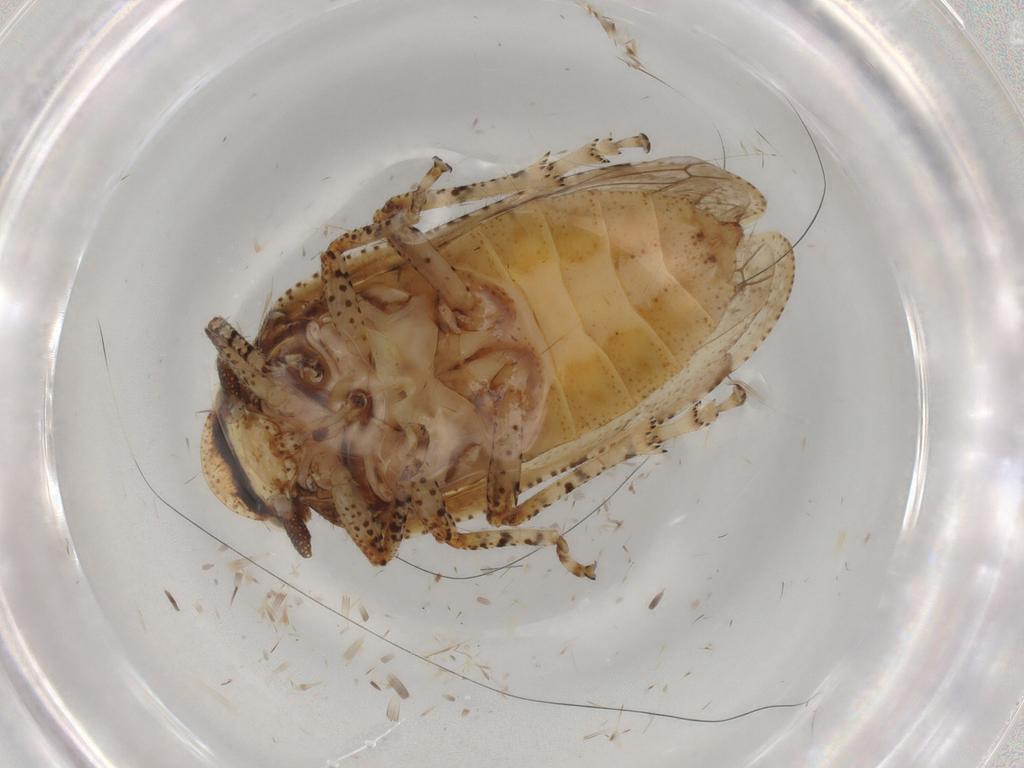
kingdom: Animalia
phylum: Arthropoda
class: Insecta
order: Hemiptera
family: Tettigometridae
